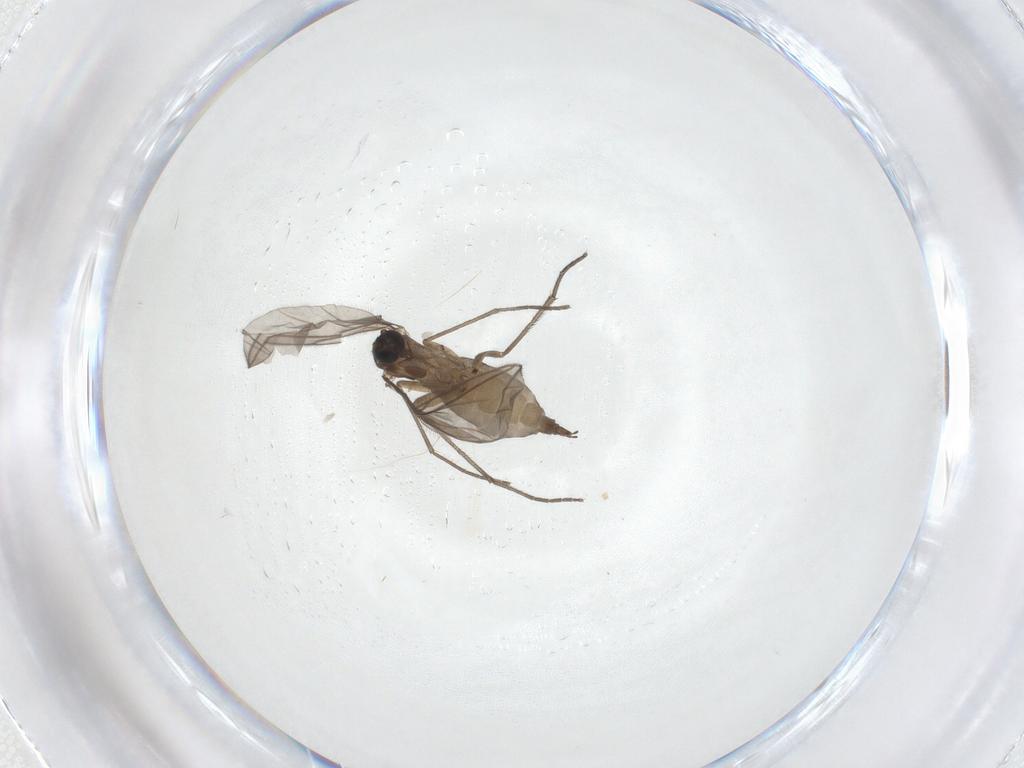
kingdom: Animalia
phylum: Arthropoda
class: Insecta
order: Diptera
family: Sciaridae
